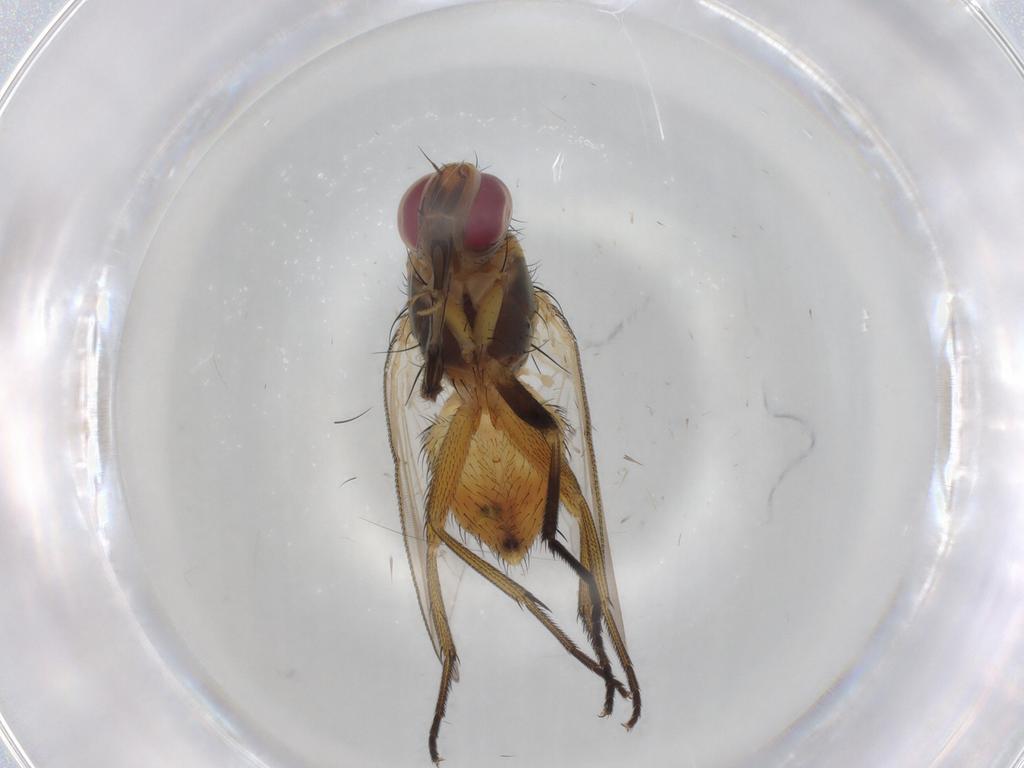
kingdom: Animalia
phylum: Arthropoda
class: Insecta
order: Diptera
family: Muscidae
